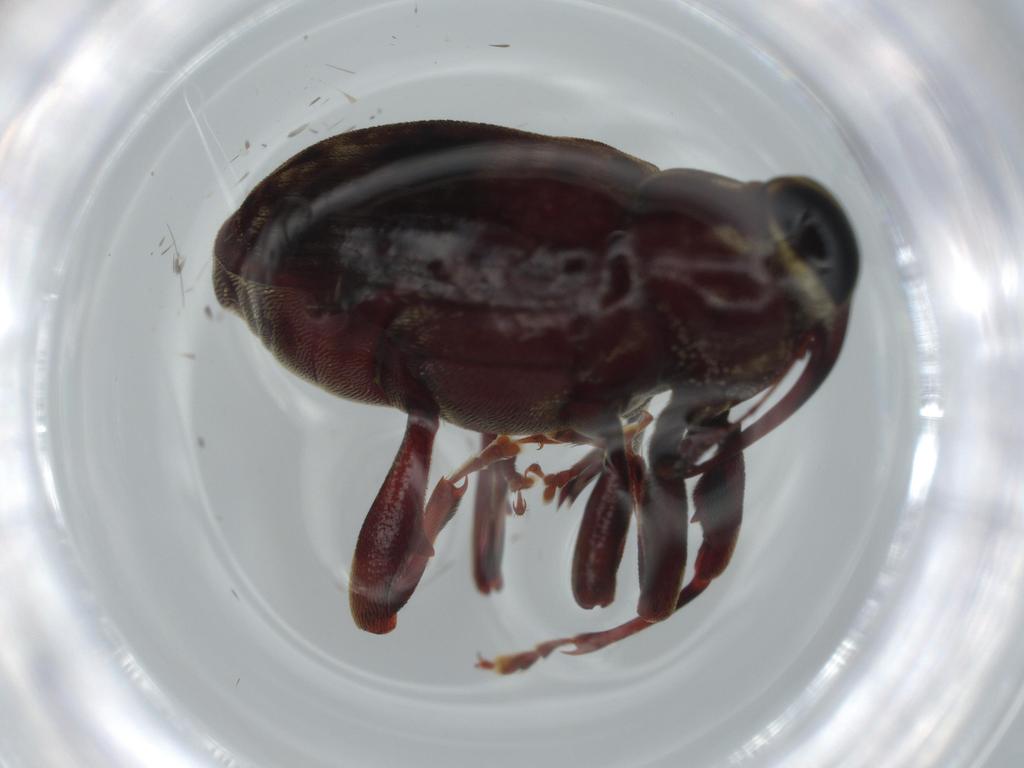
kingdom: Animalia
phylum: Arthropoda
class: Insecta
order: Coleoptera
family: Curculionidae
